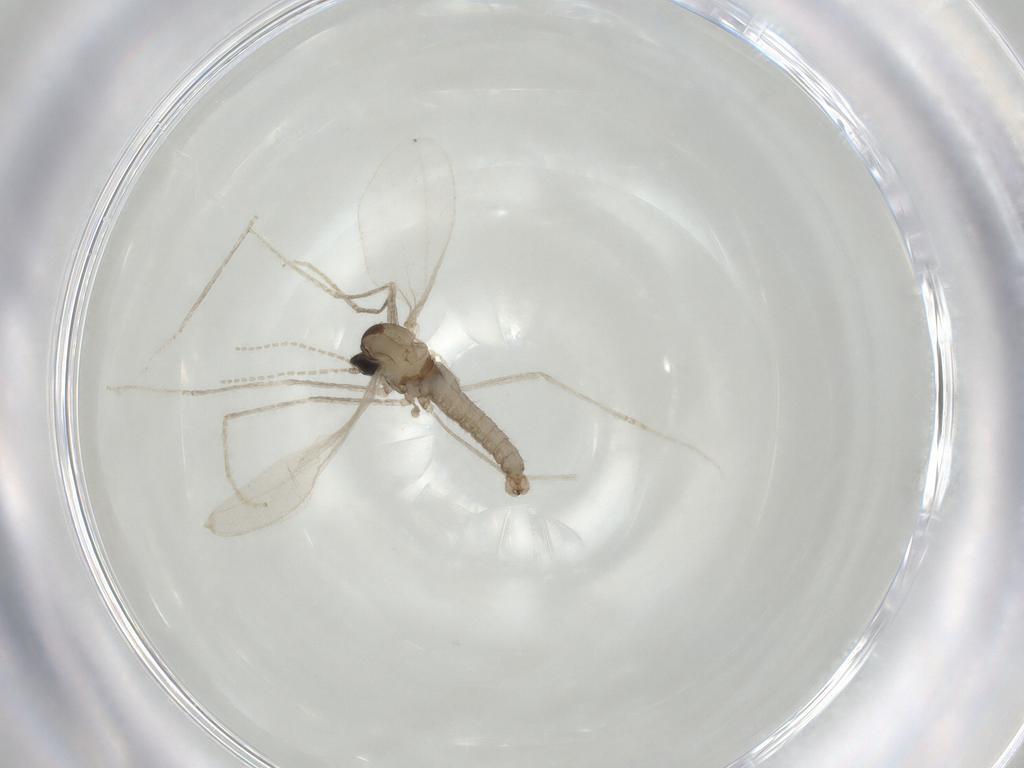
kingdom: Animalia
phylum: Arthropoda
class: Insecta
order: Diptera
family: Cecidomyiidae
